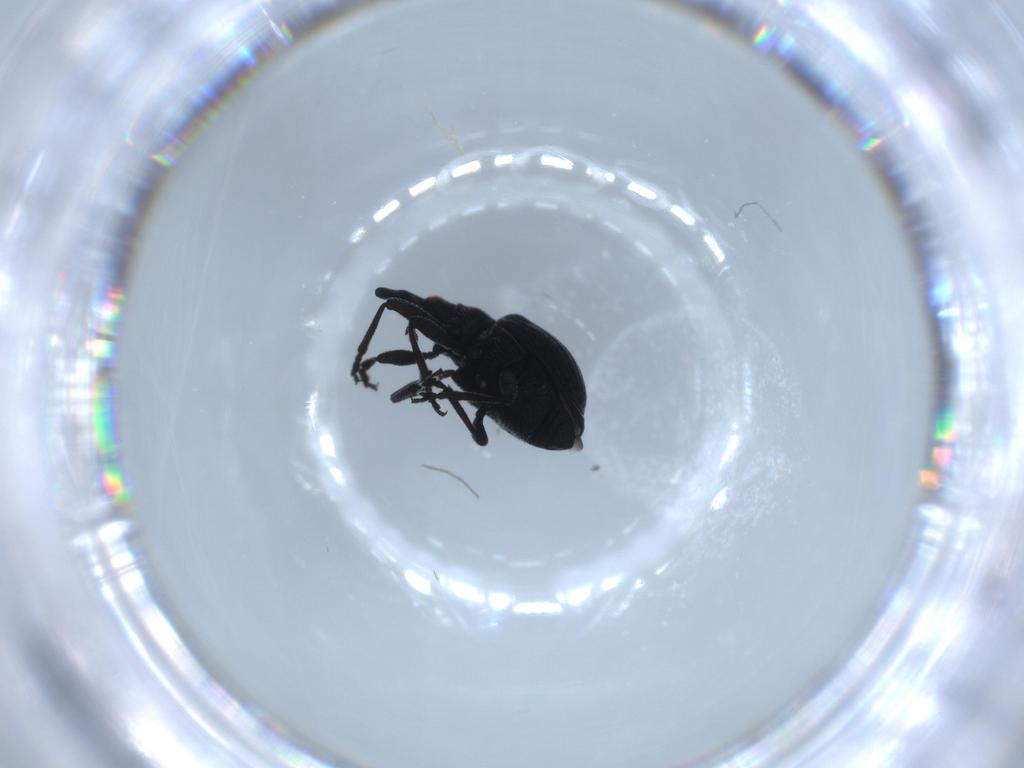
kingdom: Animalia
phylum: Arthropoda
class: Insecta
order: Coleoptera
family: Brentidae
